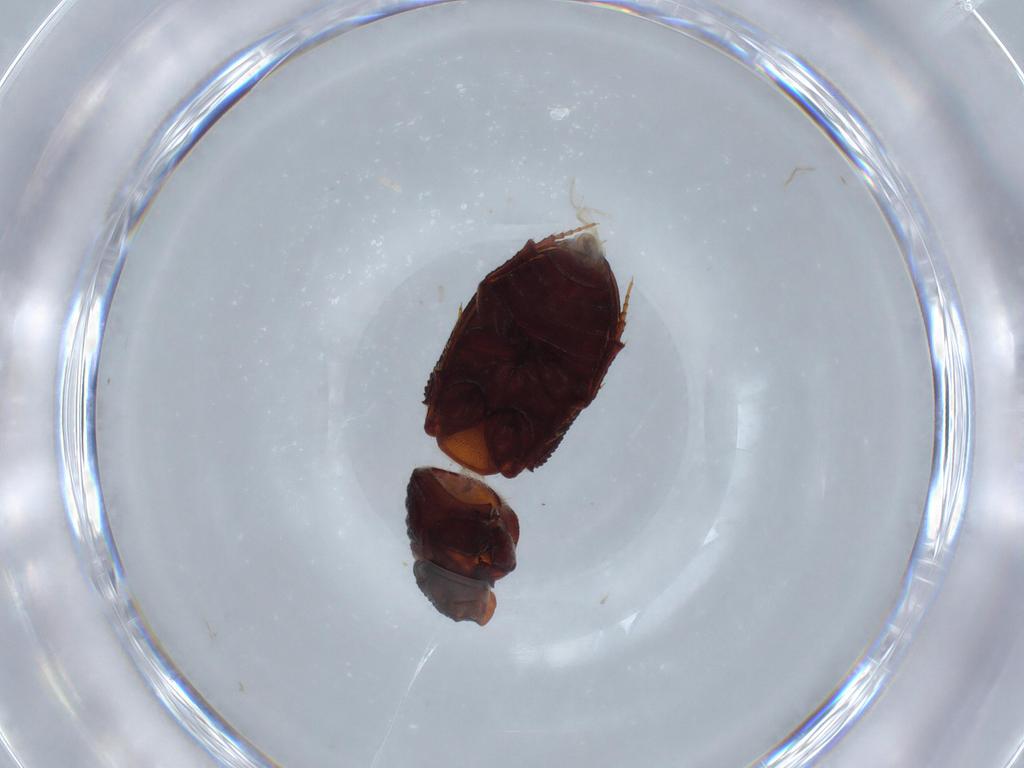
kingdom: Animalia
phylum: Arthropoda
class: Insecta
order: Coleoptera
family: Scarabaeidae
